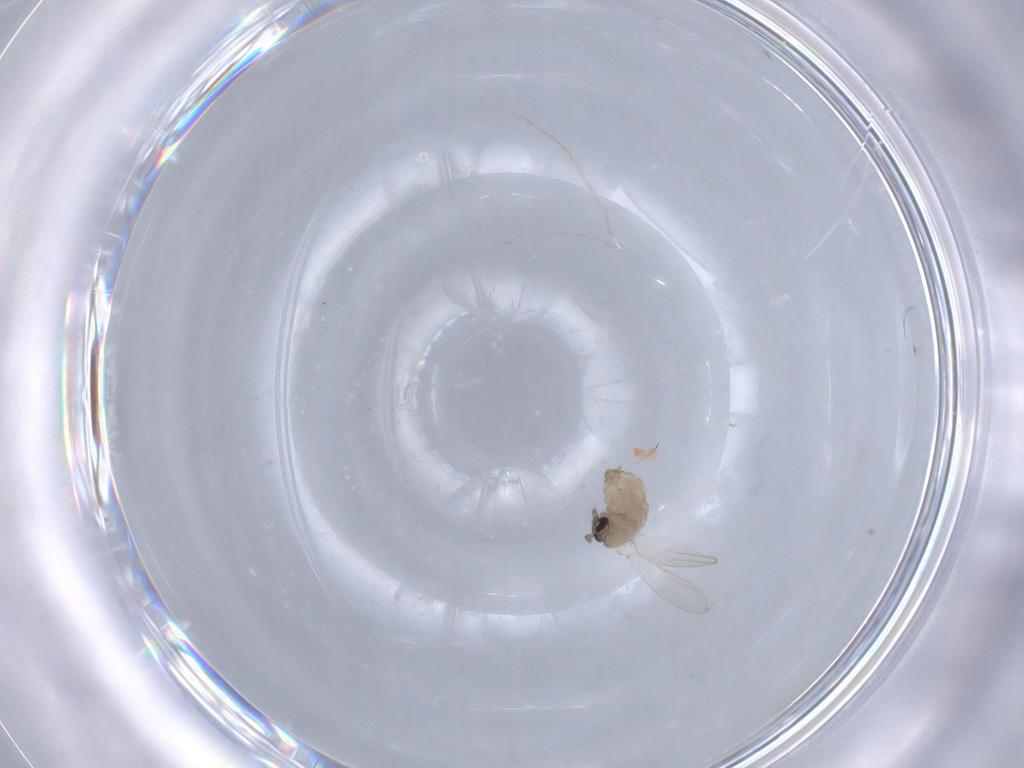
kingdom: Animalia
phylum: Arthropoda
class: Insecta
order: Diptera
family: Psychodidae
